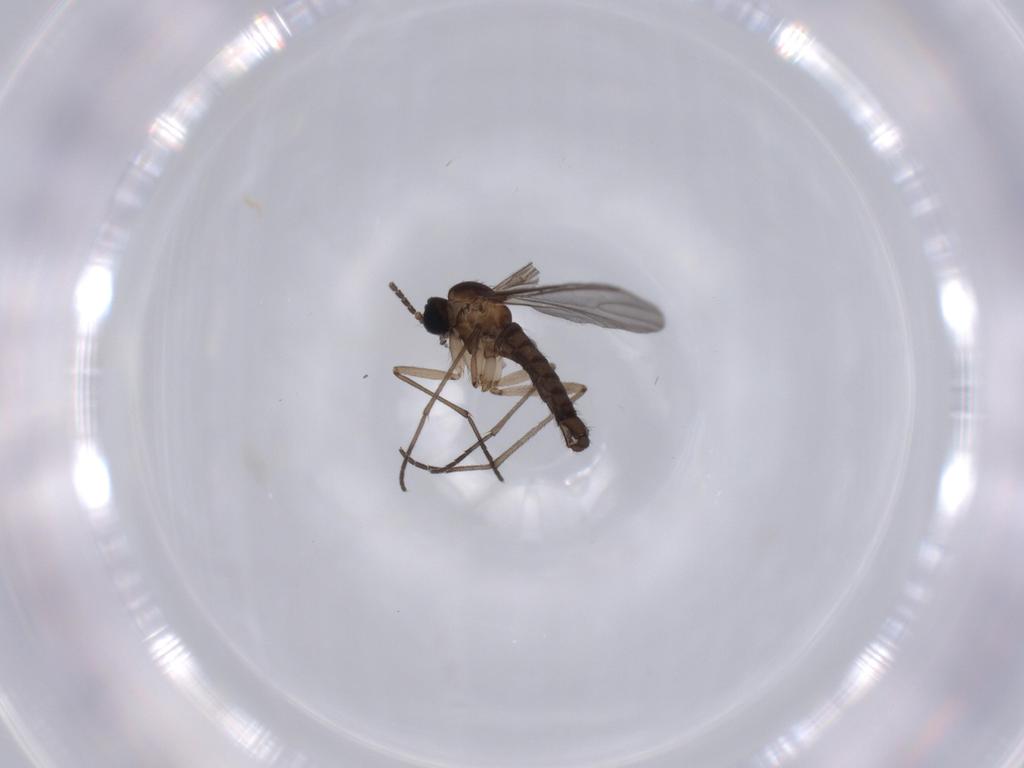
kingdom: Animalia
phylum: Arthropoda
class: Insecta
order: Diptera
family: Sciaridae
